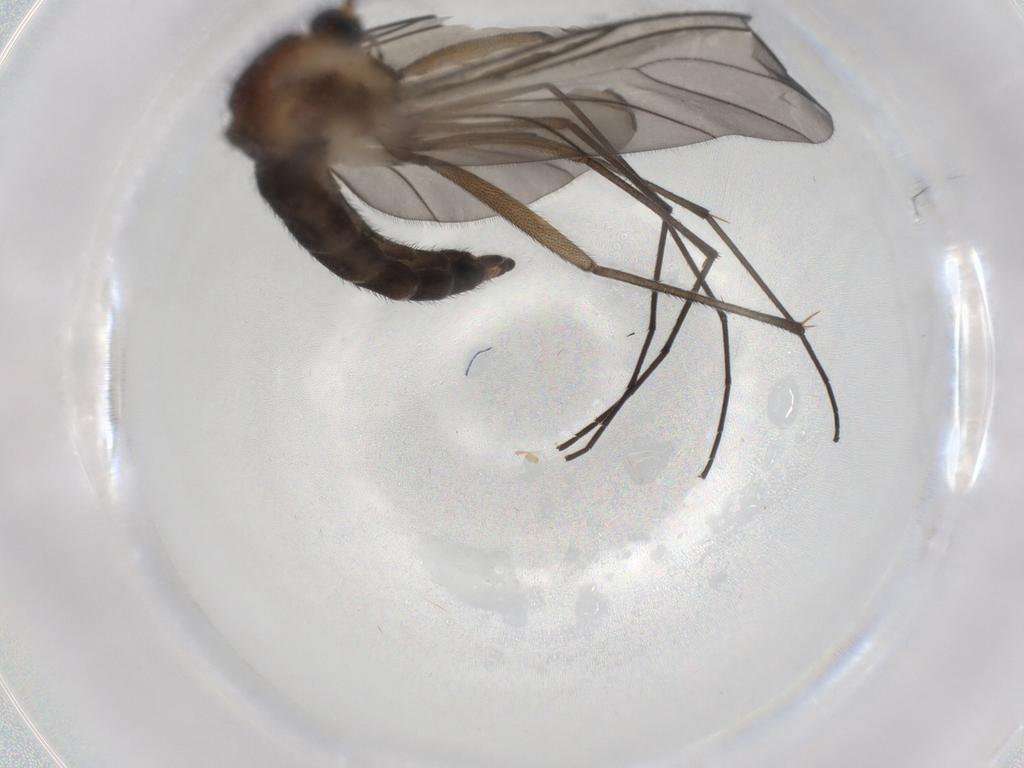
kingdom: Animalia
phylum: Arthropoda
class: Insecta
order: Diptera
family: Sciaridae
